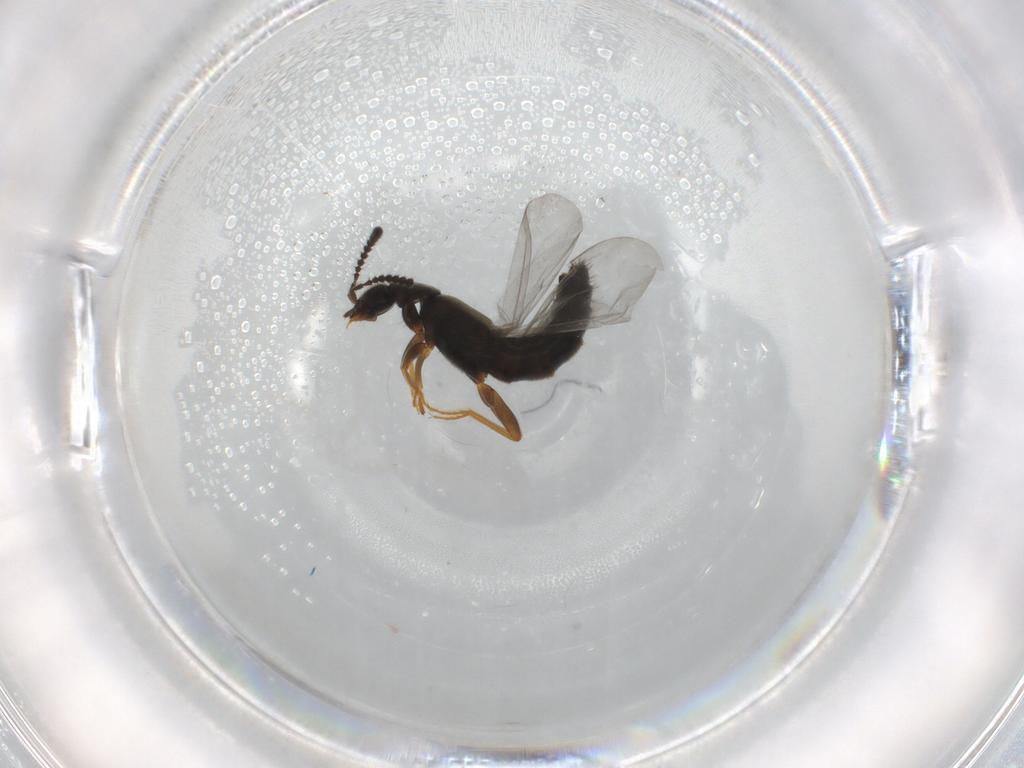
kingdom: Animalia
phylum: Arthropoda
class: Insecta
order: Coleoptera
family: Staphylinidae
